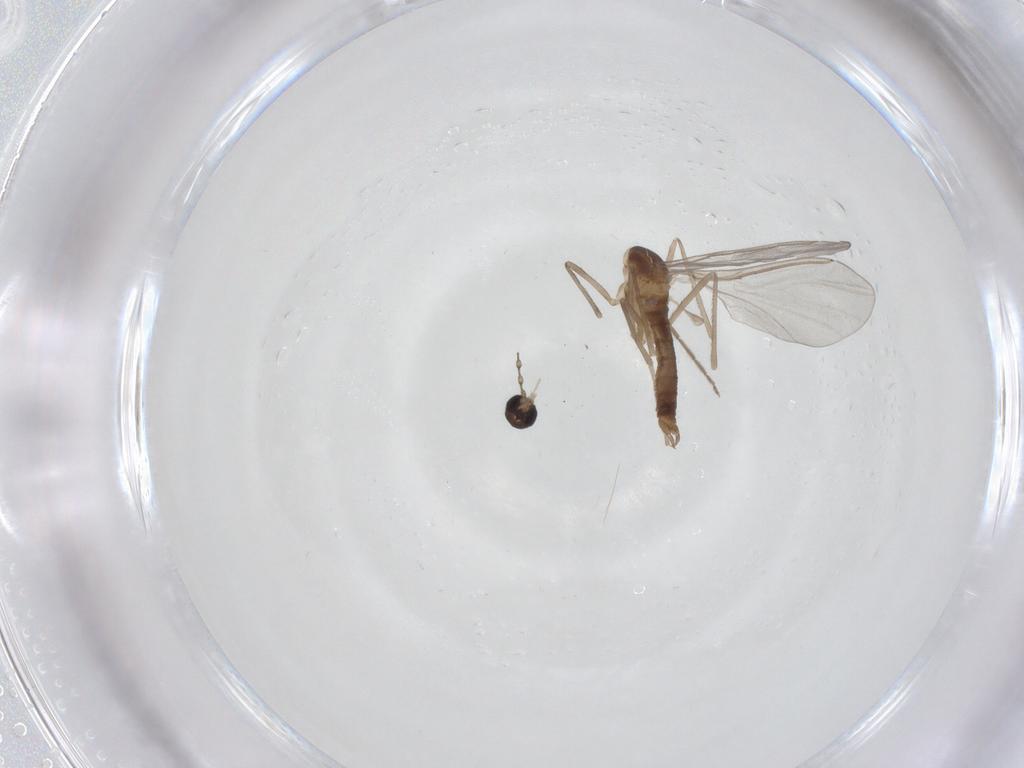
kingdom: Animalia
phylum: Arthropoda
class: Insecta
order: Diptera
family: Cecidomyiidae
